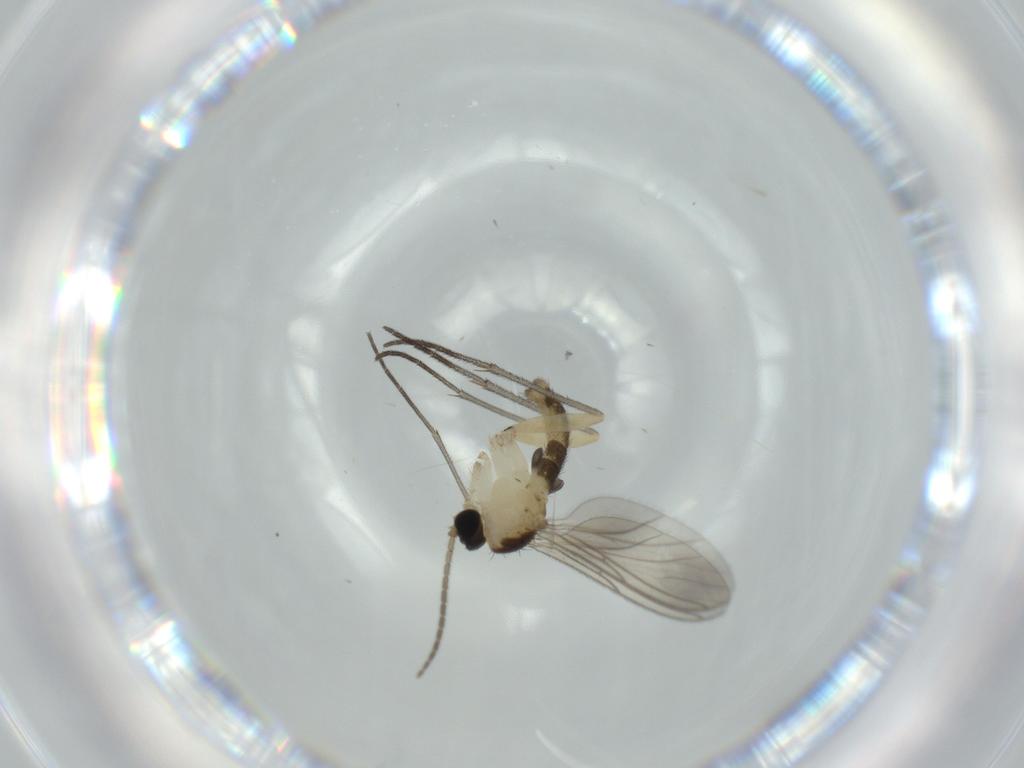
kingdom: Animalia
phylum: Arthropoda
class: Insecta
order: Diptera
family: Sciaridae
